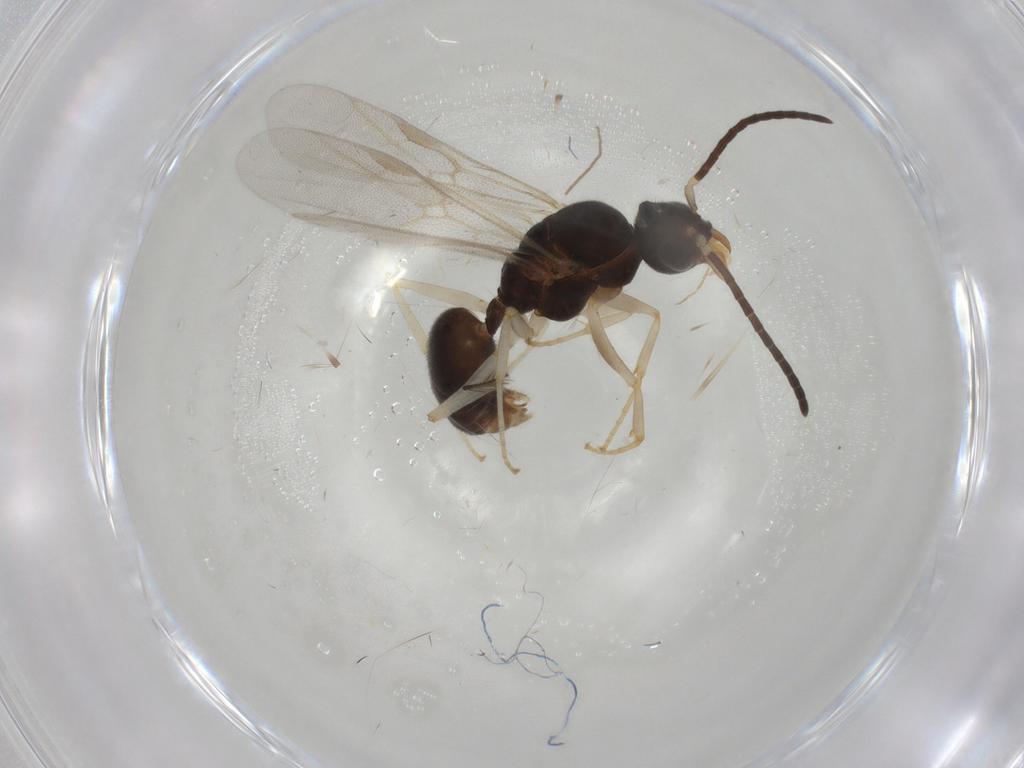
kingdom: Animalia
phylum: Arthropoda
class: Insecta
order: Hymenoptera
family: Formicidae
